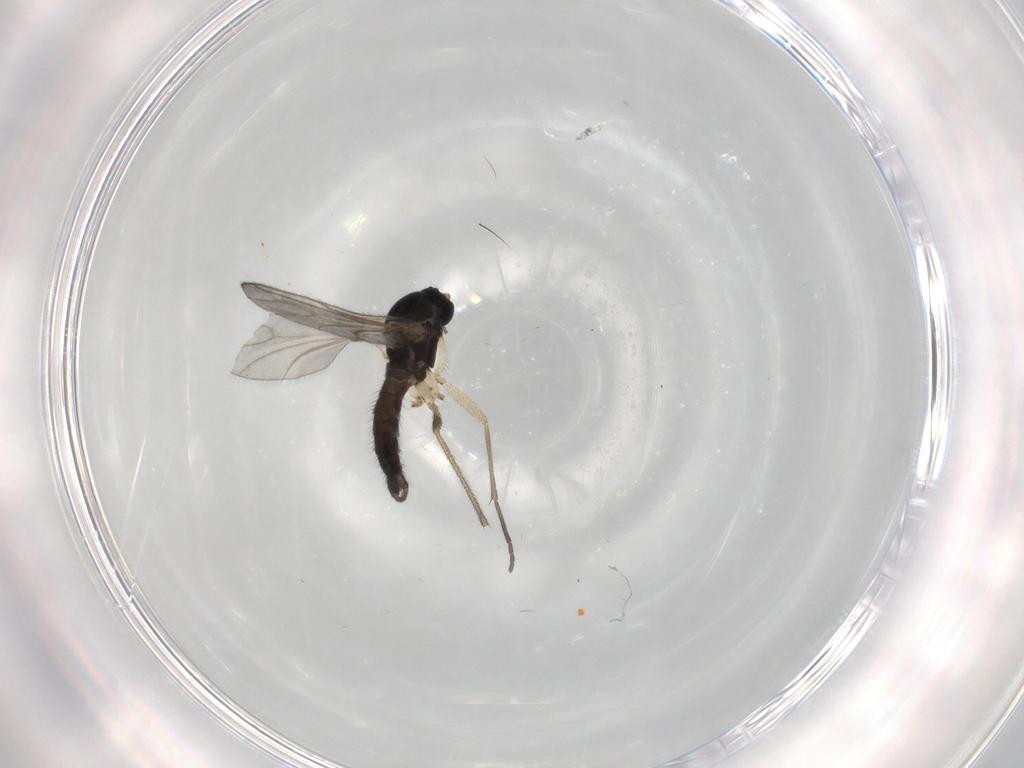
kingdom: Animalia
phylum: Arthropoda
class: Insecta
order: Diptera
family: Sciaridae
